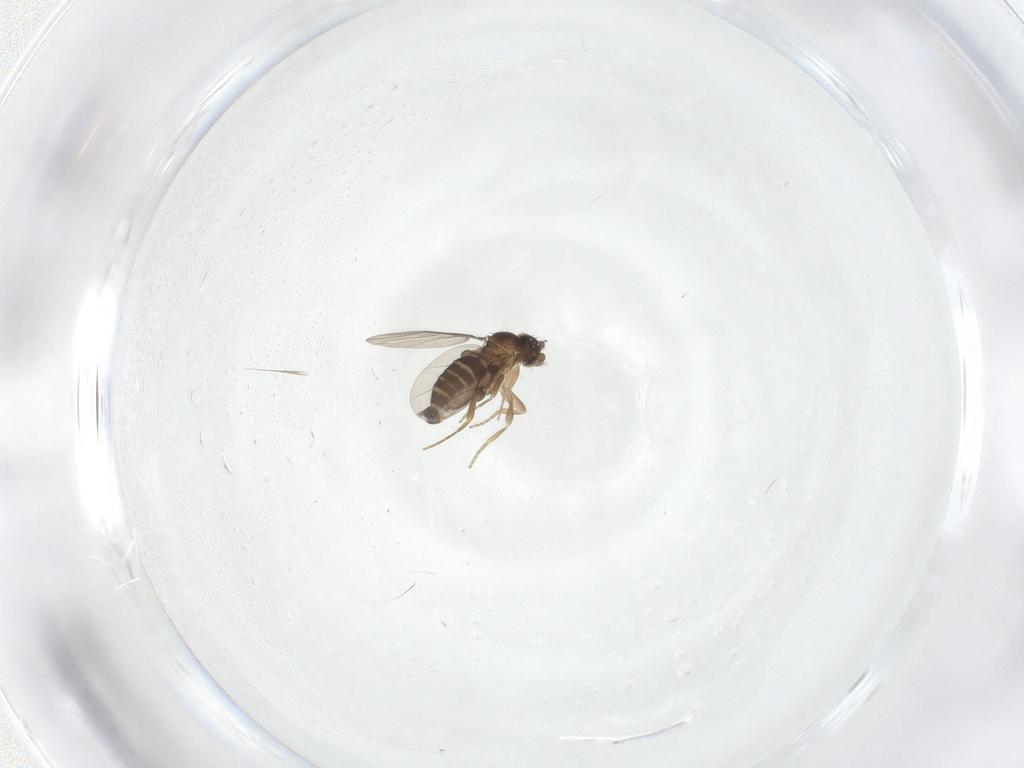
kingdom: Animalia
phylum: Arthropoda
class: Insecta
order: Diptera
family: Phoridae
